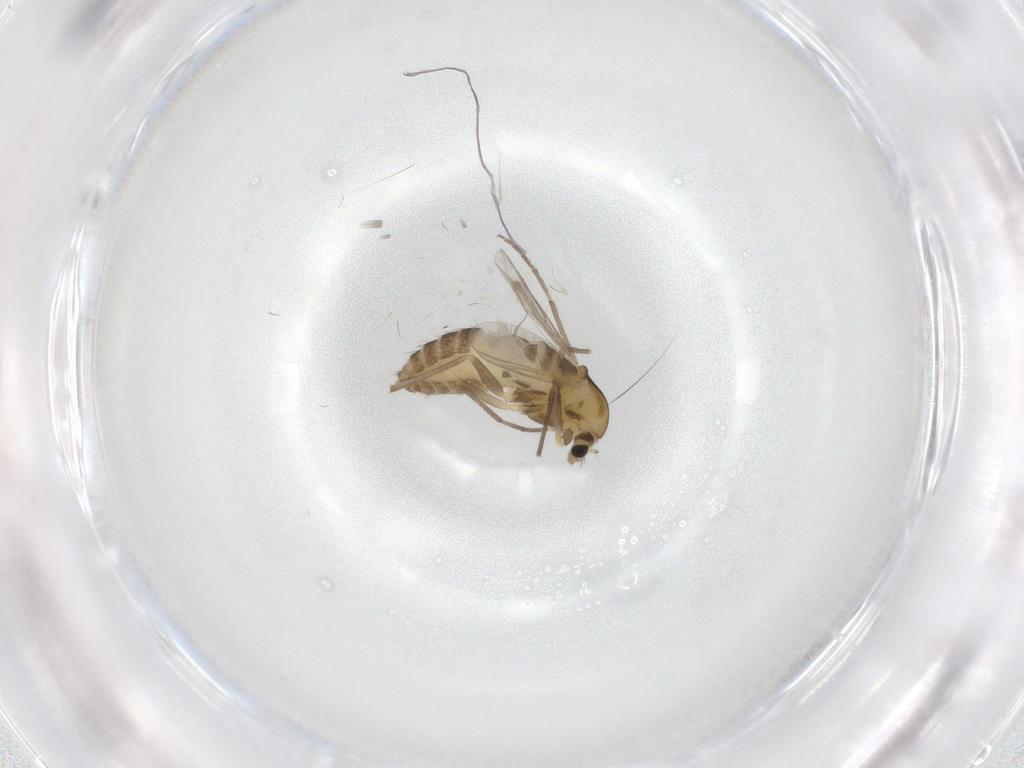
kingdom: Animalia
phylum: Arthropoda
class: Insecta
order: Diptera
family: Chironomidae
